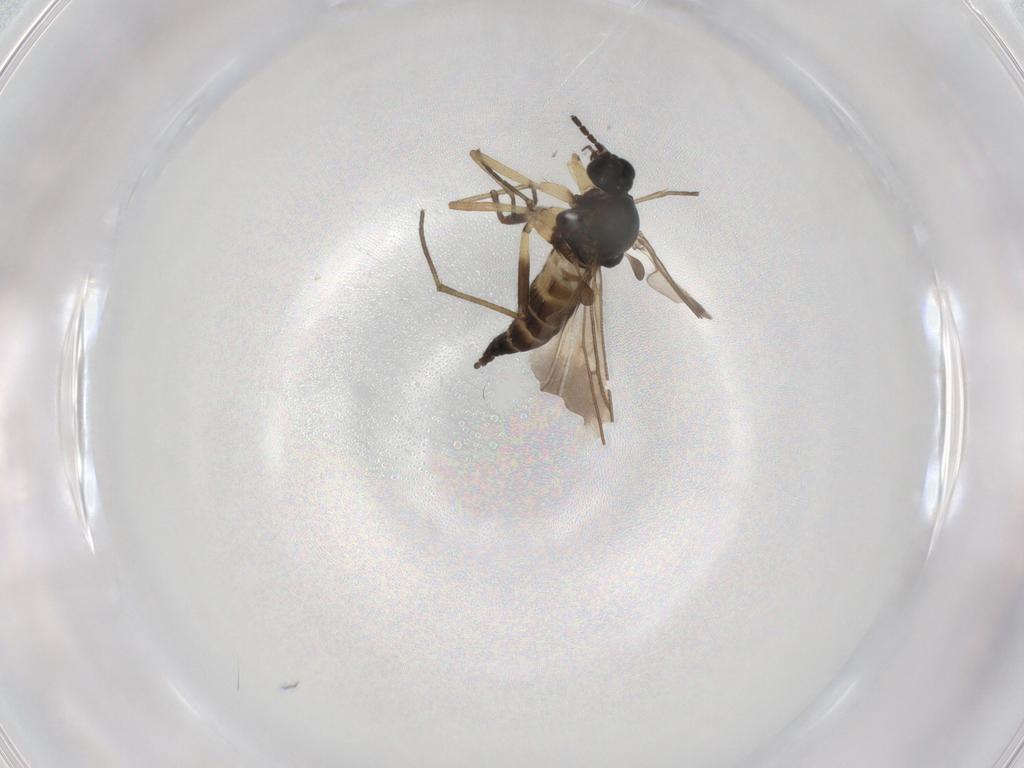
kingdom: Animalia
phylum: Arthropoda
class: Insecta
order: Diptera
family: Sciaridae
